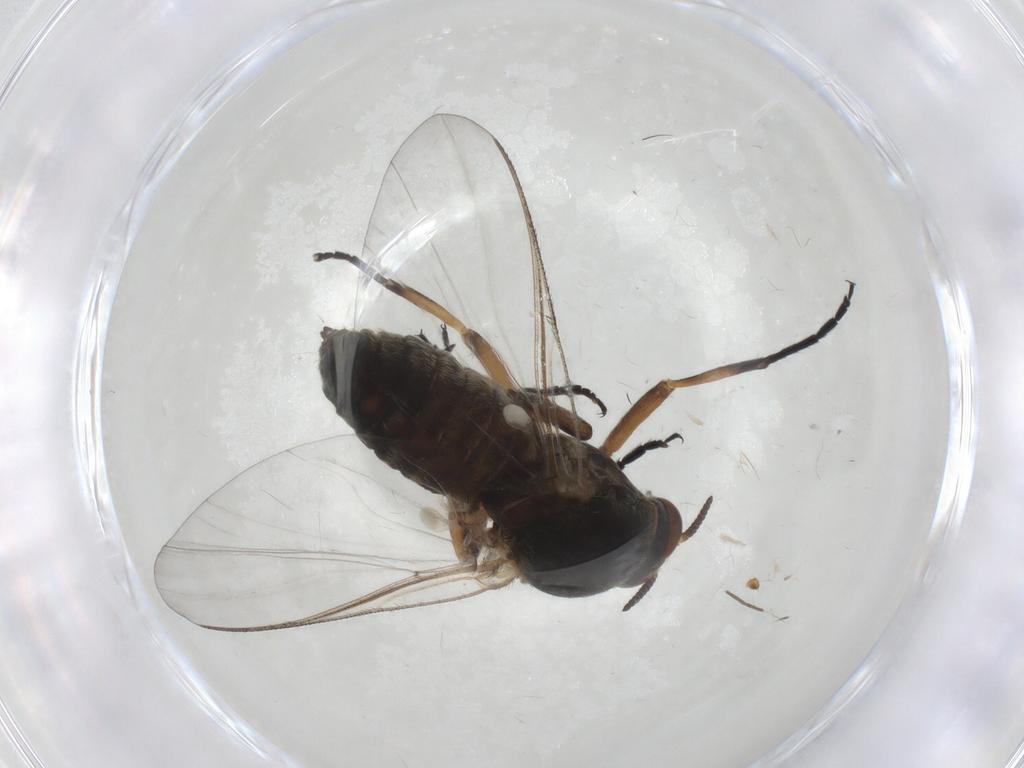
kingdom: Animalia
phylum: Arthropoda
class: Insecta
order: Diptera
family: Simuliidae
